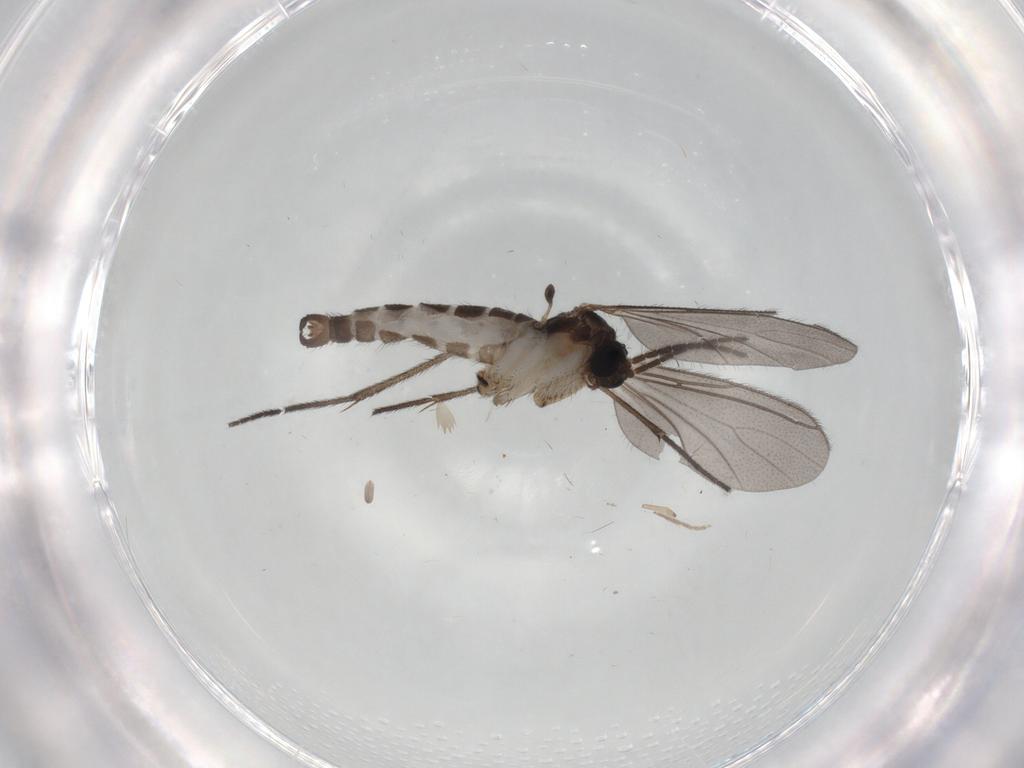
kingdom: Animalia
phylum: Arthropoda
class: Insecta
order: Diptera
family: Sciaridae
